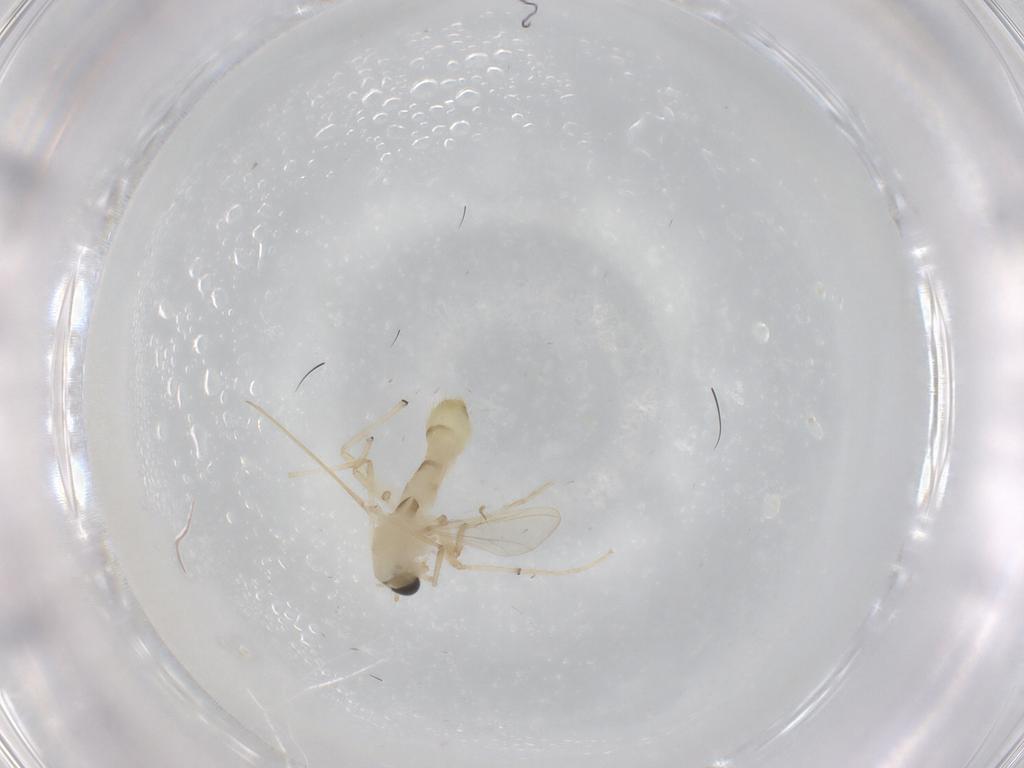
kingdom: Animalia
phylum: Arthropoda
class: Insecta
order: Diptera
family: Chironomidae
